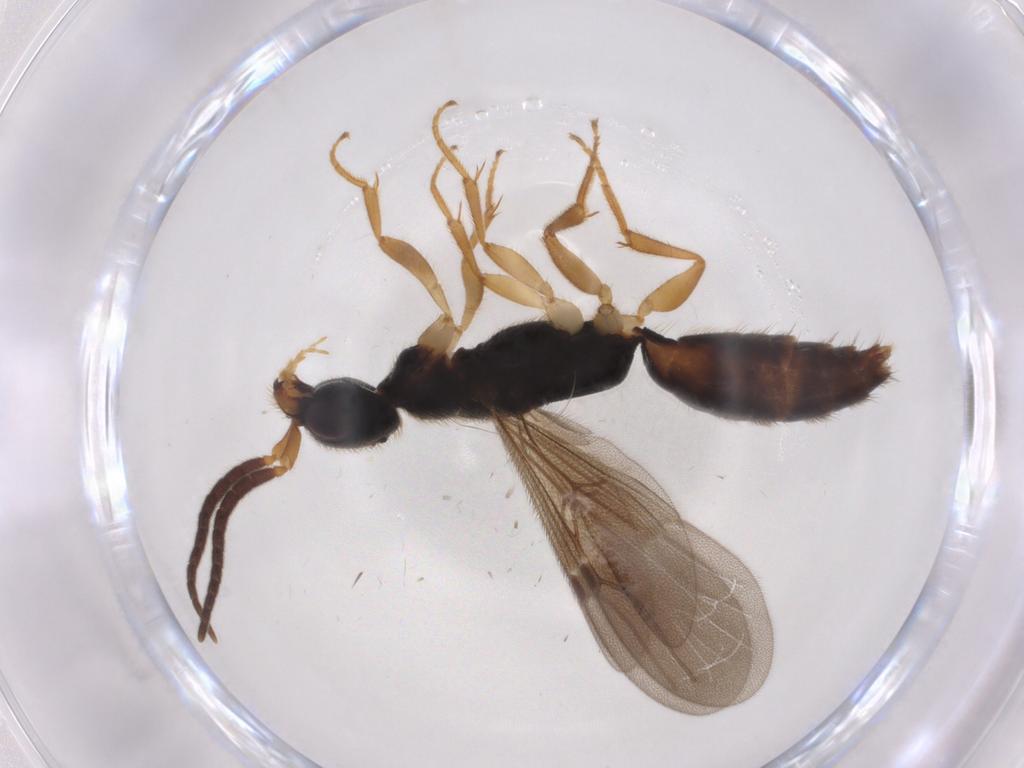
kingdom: Animalia
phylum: Arthropoda
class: Insecta
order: Hymenoptera
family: Bethylidae
